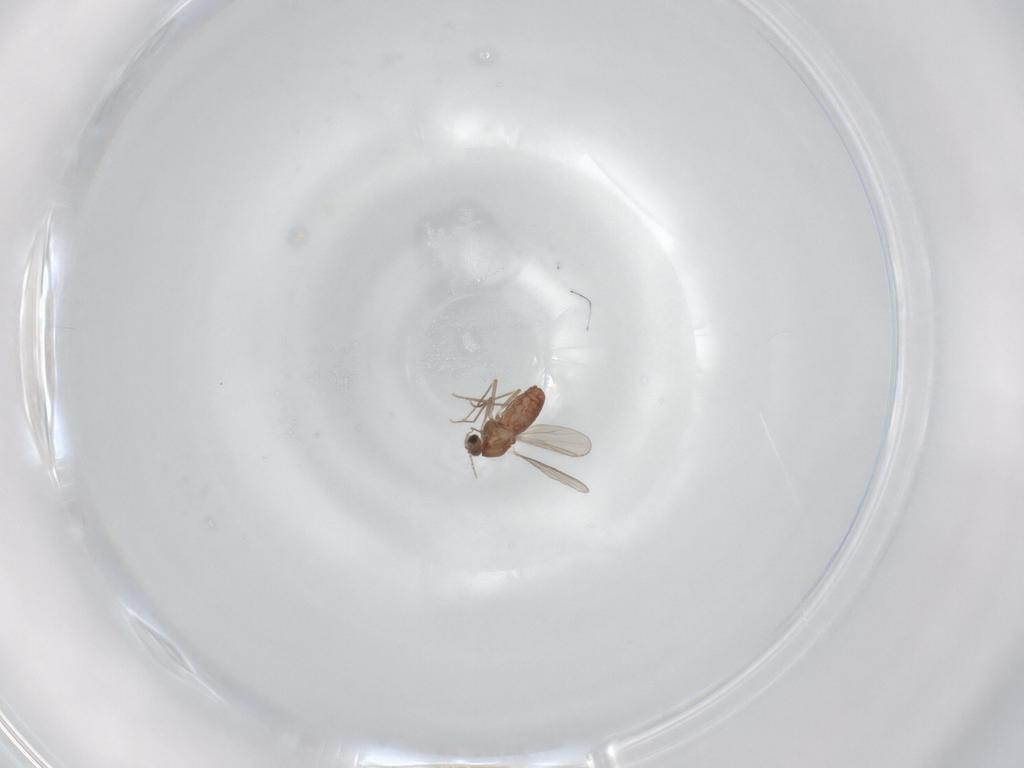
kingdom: Animalia
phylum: Arthropoda
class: Insecta
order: Diptera
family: Chironomidae
